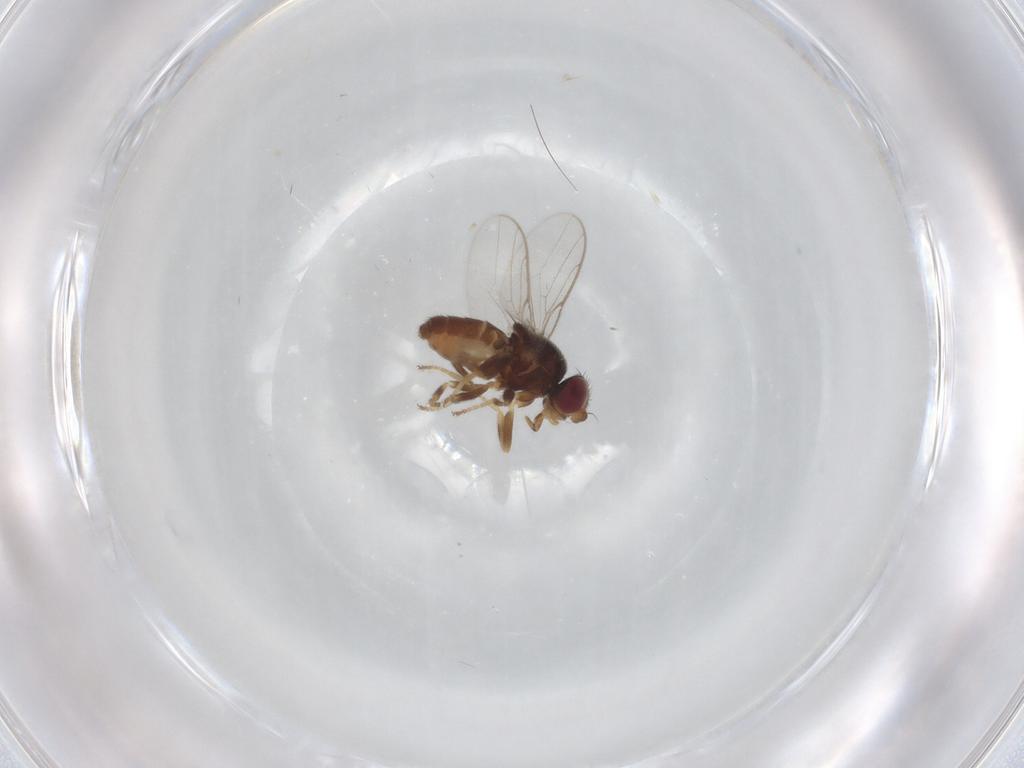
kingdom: Animalia
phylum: Arthropoda
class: Insecta
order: Diptera
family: Chloropidae
